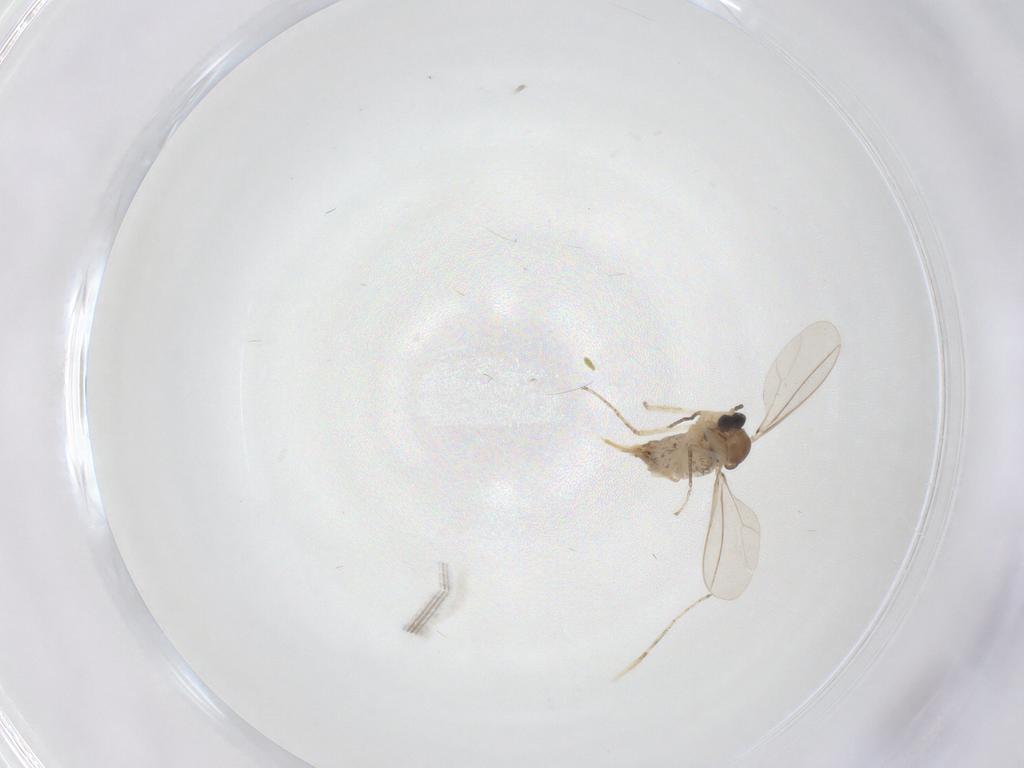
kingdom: Animalia
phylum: Arthropoda
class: Insecta
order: Diptera
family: Cecidomyiidae
